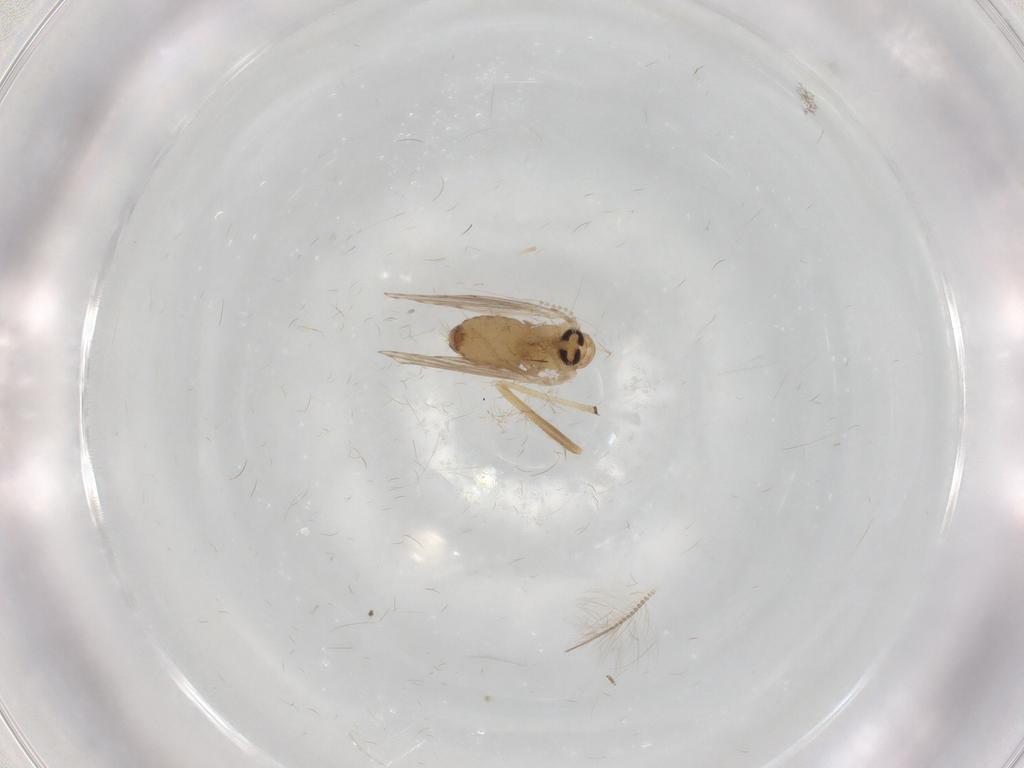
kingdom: Animalia
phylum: Arthropoda
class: Insecta
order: Diptera
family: Psychodidae
